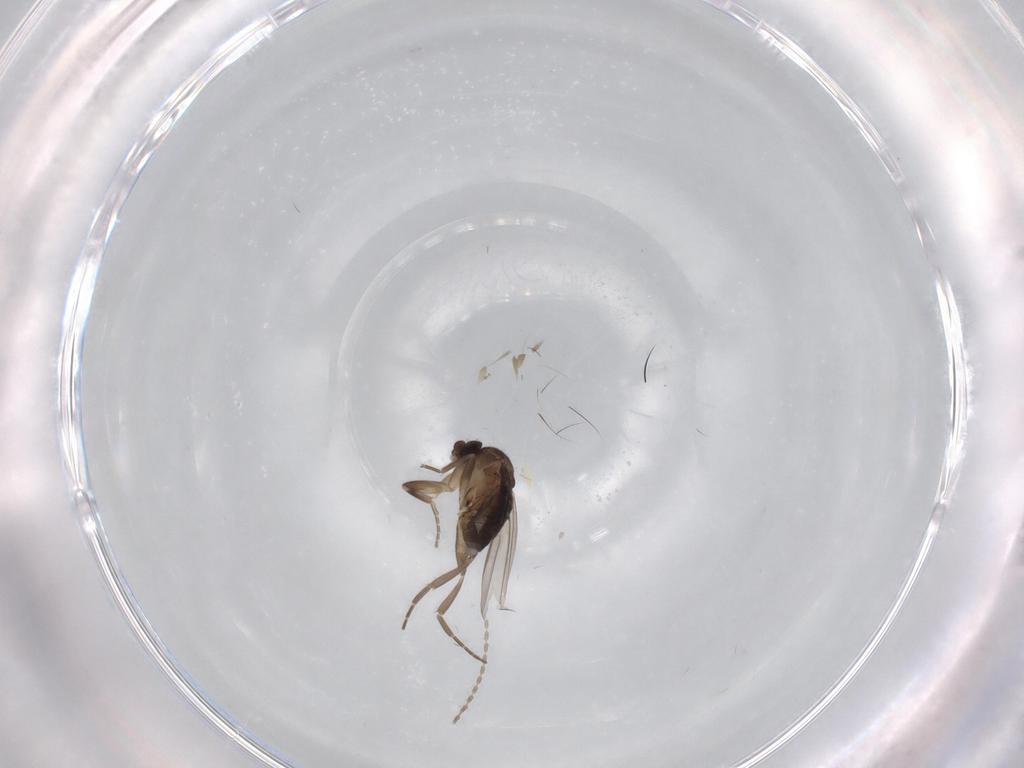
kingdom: Animalia
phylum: Arthropoda
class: Insecta
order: Diptera
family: Phoridae
